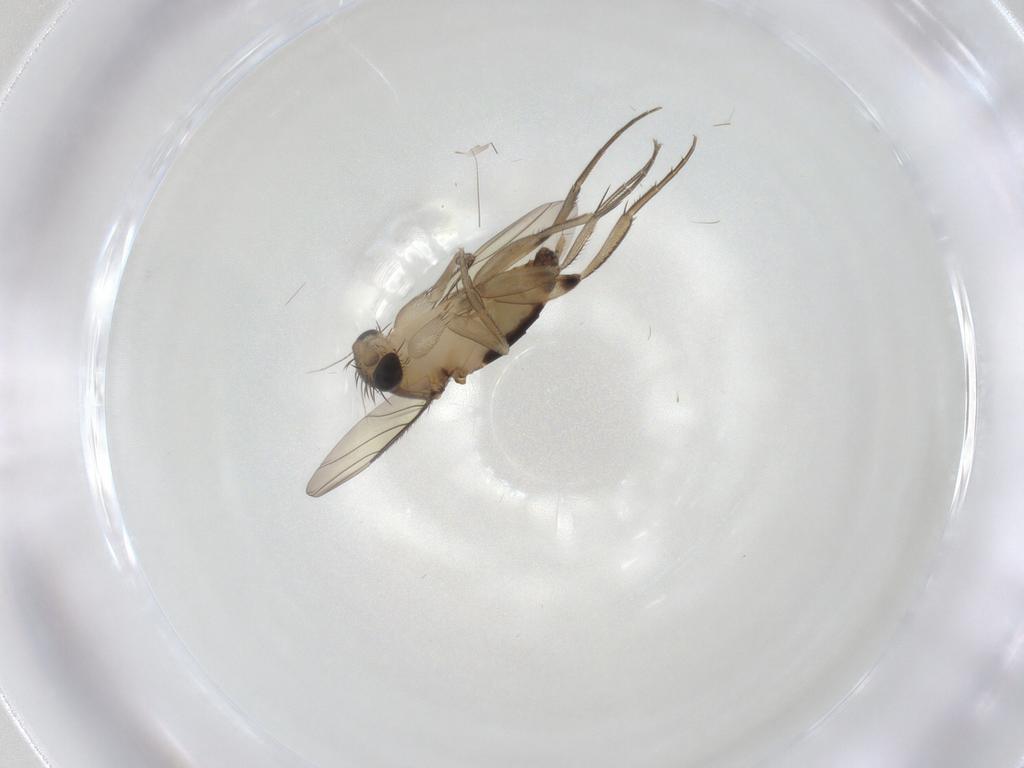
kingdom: Animalia
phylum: Arthropoda
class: Insecta
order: Diptera
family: Phoridae
